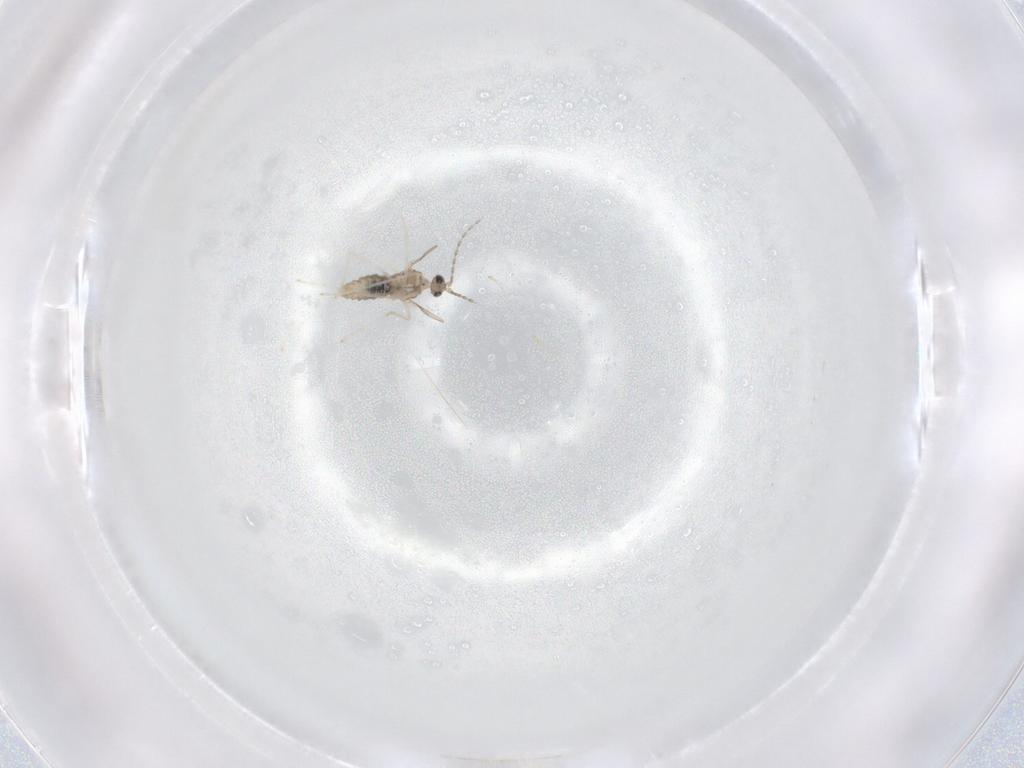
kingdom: Animalia
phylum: Arthropoda
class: Insecta
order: Diptera
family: Cecidomyiidae
